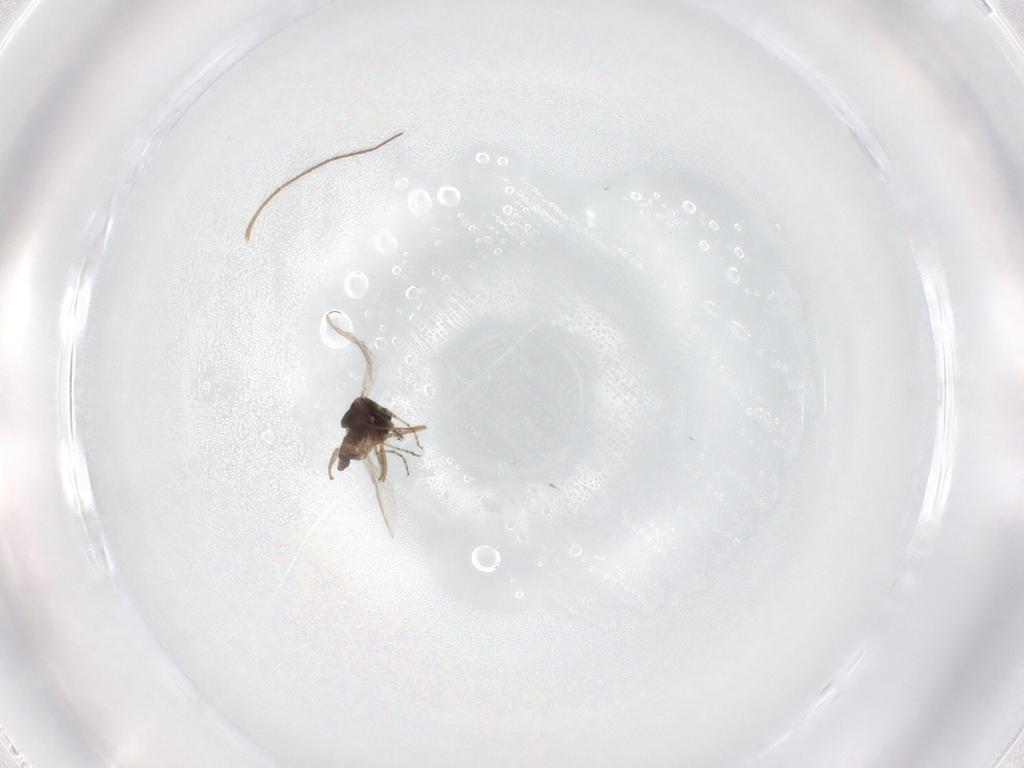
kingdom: Animalia
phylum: Arthropoda
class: Insecta
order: Diptera
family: Ceratopogonidae
